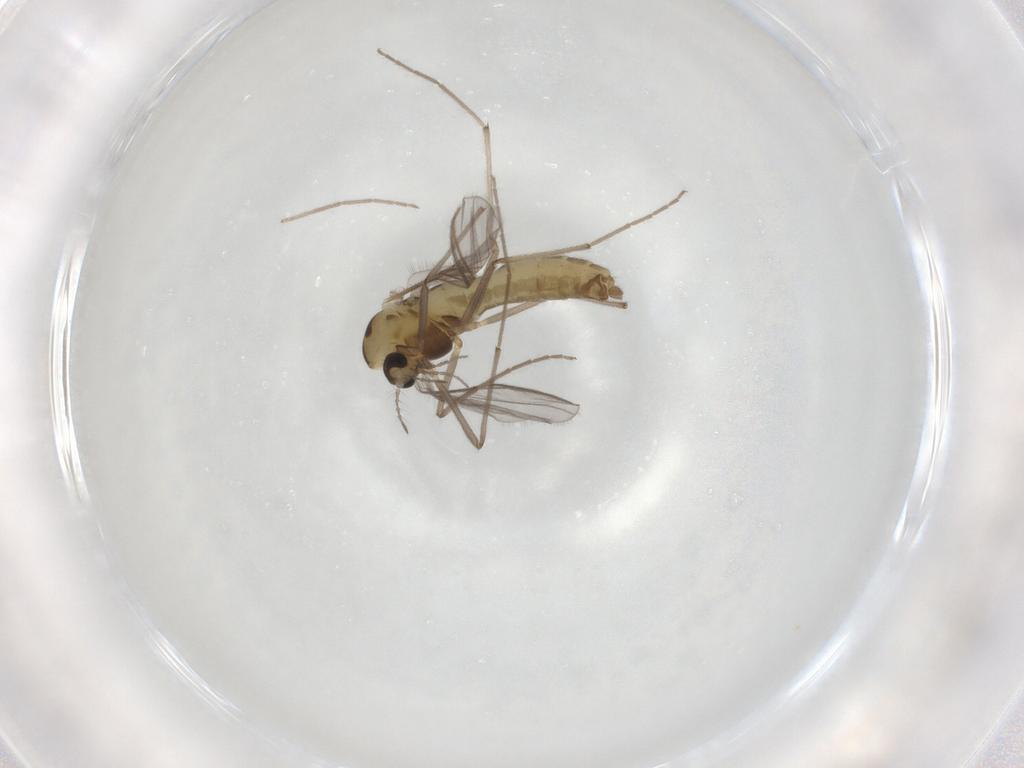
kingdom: Animalia
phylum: Arthropoda
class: Insecta
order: Diptera
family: Chironomidae
